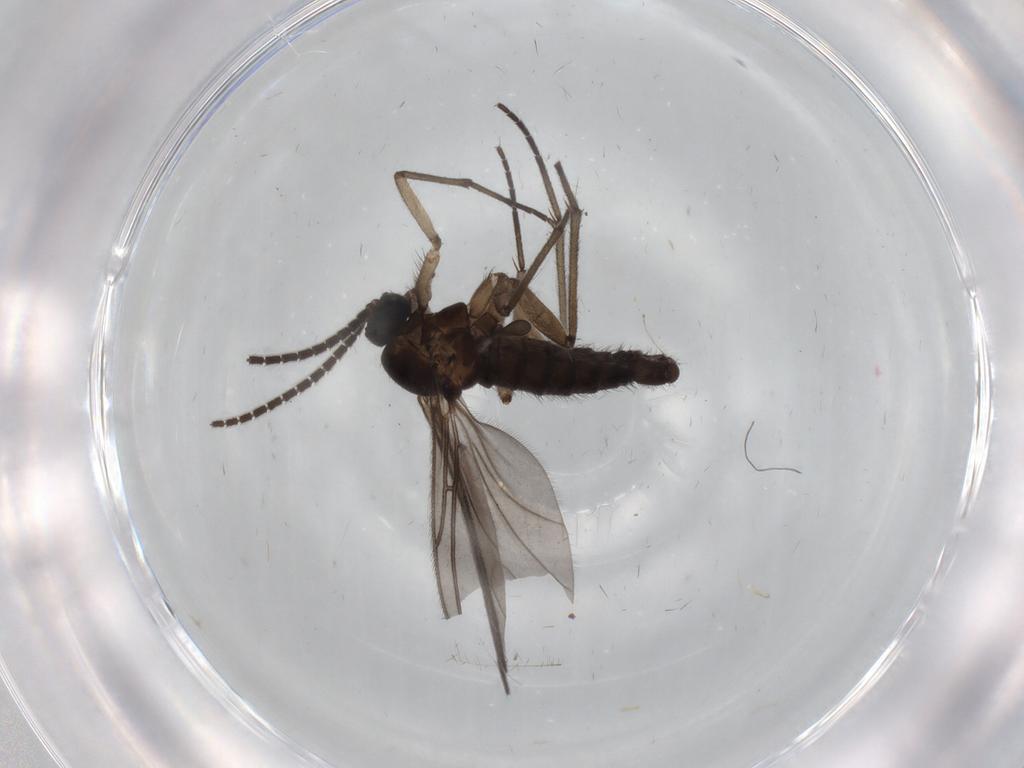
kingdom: Animalia
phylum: Arthropoda
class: Insecta
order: Diptera
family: Sciaridae
